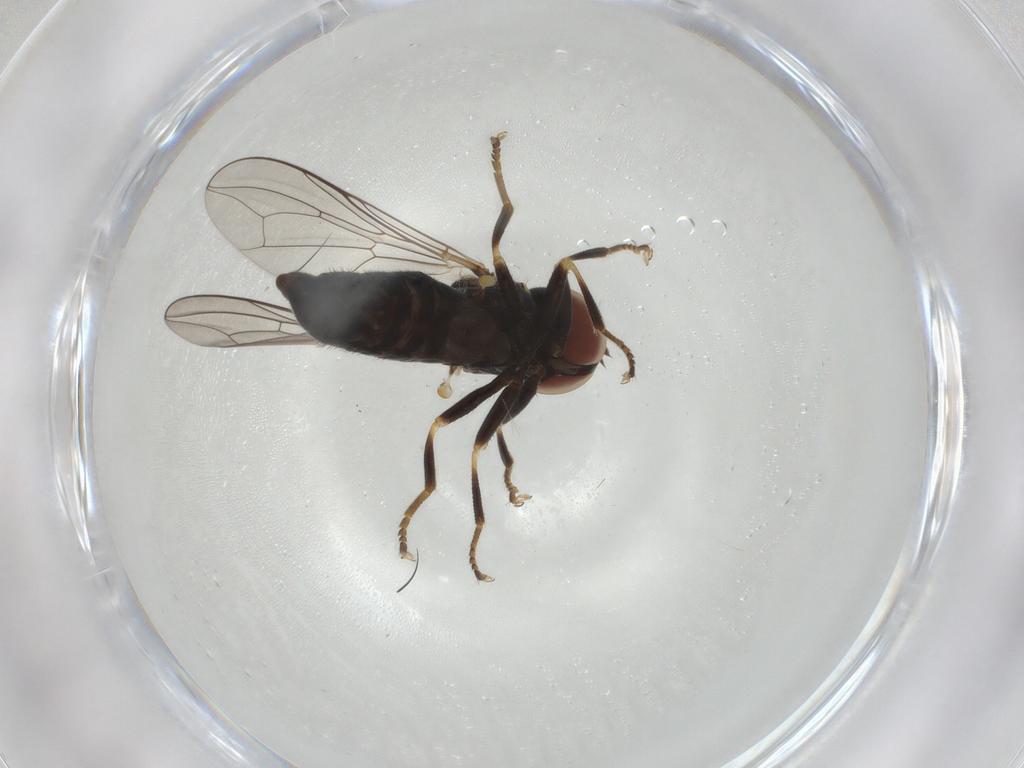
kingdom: Animalia
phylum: Arthropoda
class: Insecta
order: Diptera
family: Pipunculidae
